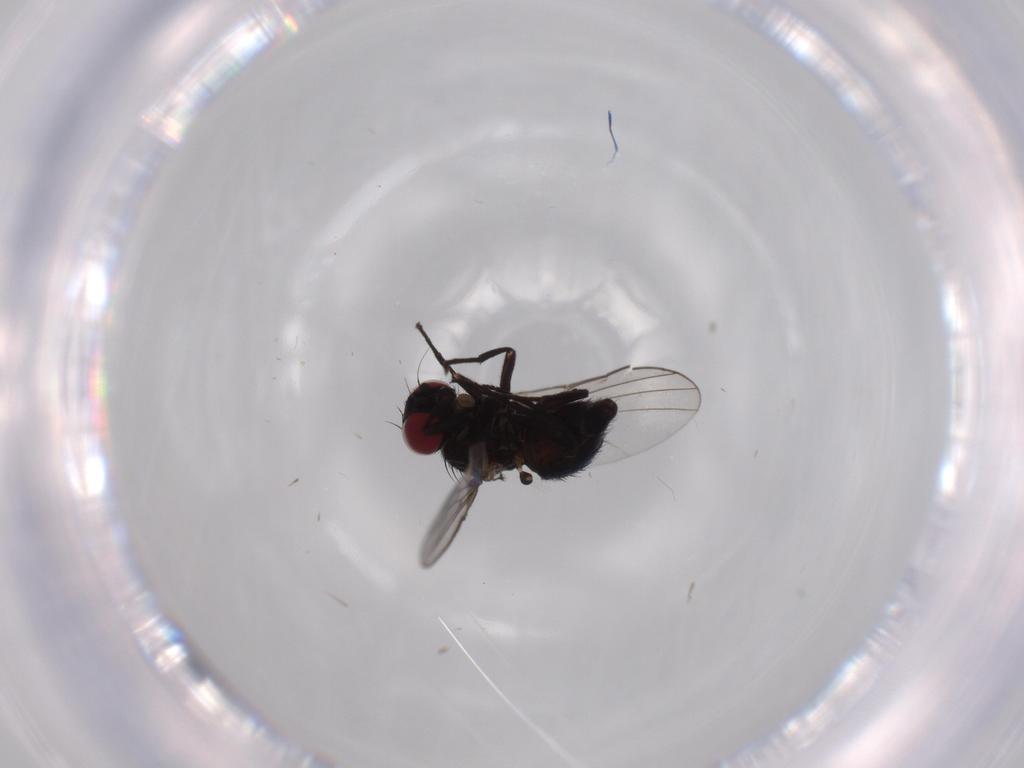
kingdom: Animalia
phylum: Arthropoda
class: Insecta
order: Diptera
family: Agromyzidae
